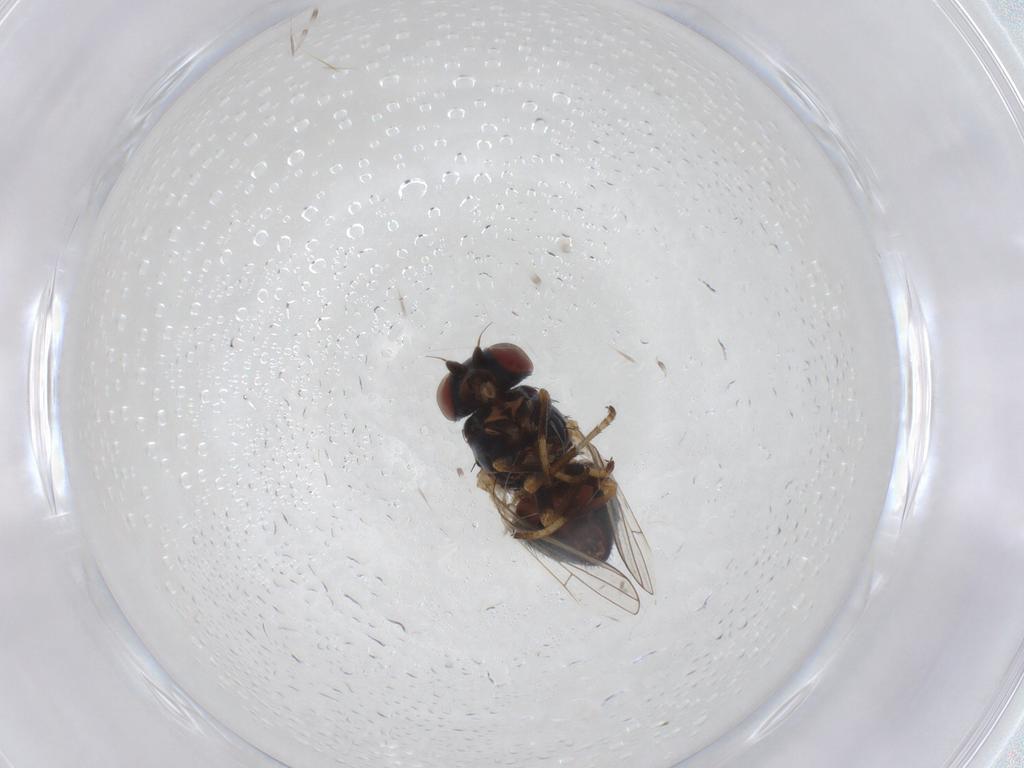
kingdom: Animalia
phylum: Arthropoda
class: Insecta
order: Diptera
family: Chamaemyiidae
